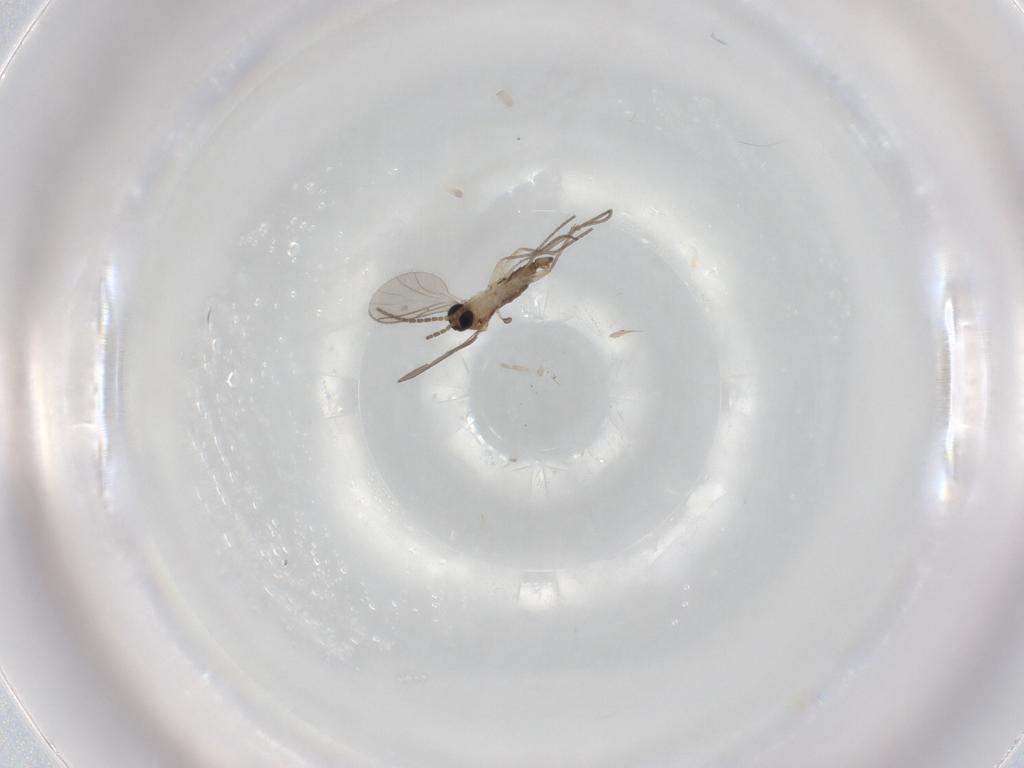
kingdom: Animalia
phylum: Arthropoda
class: Insecta
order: Diptera
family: Sciaridae
